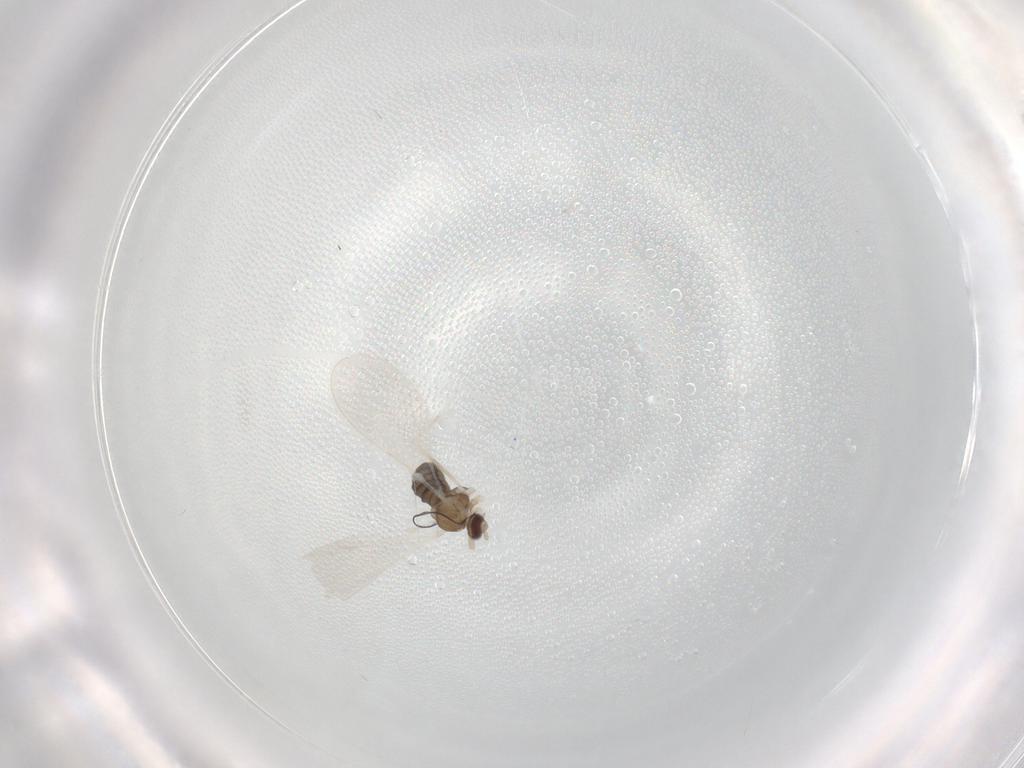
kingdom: Animalia
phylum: Arthropoda
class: Insecta
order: Diptera
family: Cecidomyiidae
